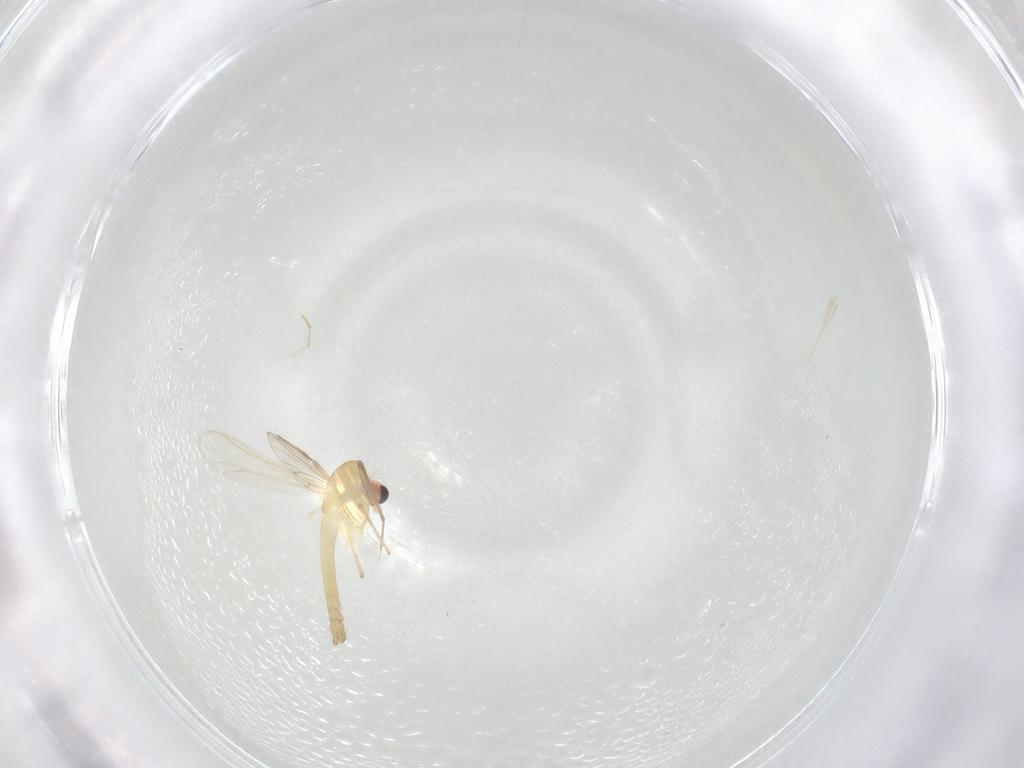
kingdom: Animalia
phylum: Arthropoda
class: Insecta
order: Diptera
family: Chironomidae
